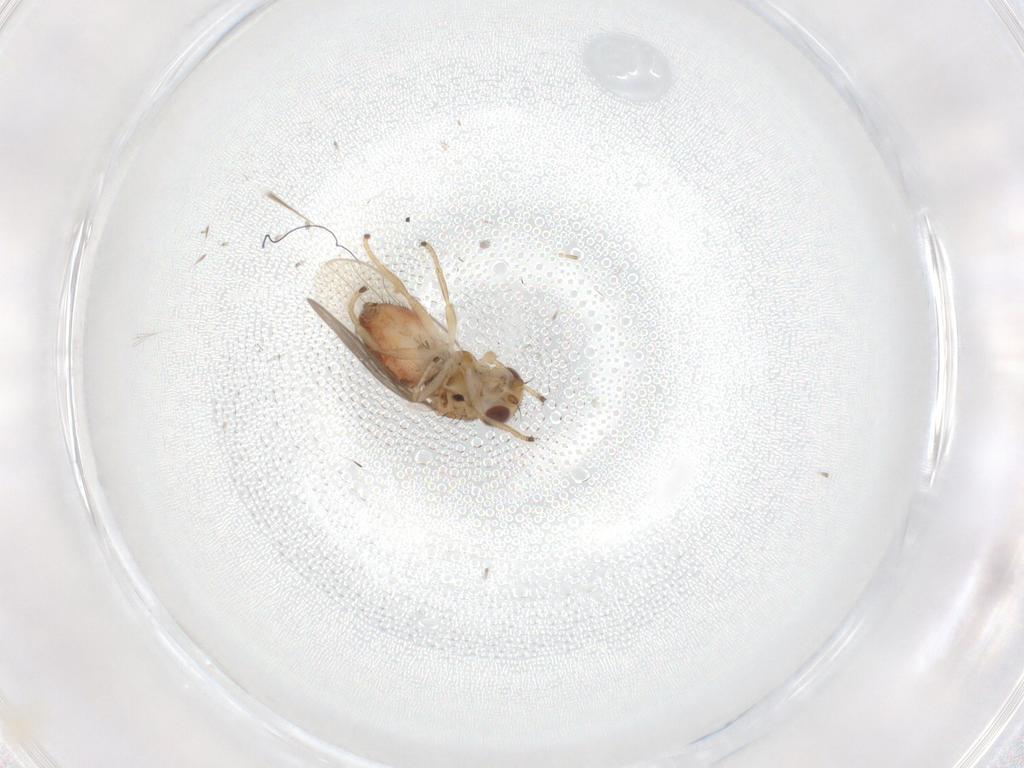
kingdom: Animalia
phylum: Arthropoda
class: Insecta
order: Diptera
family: Chloropidae
